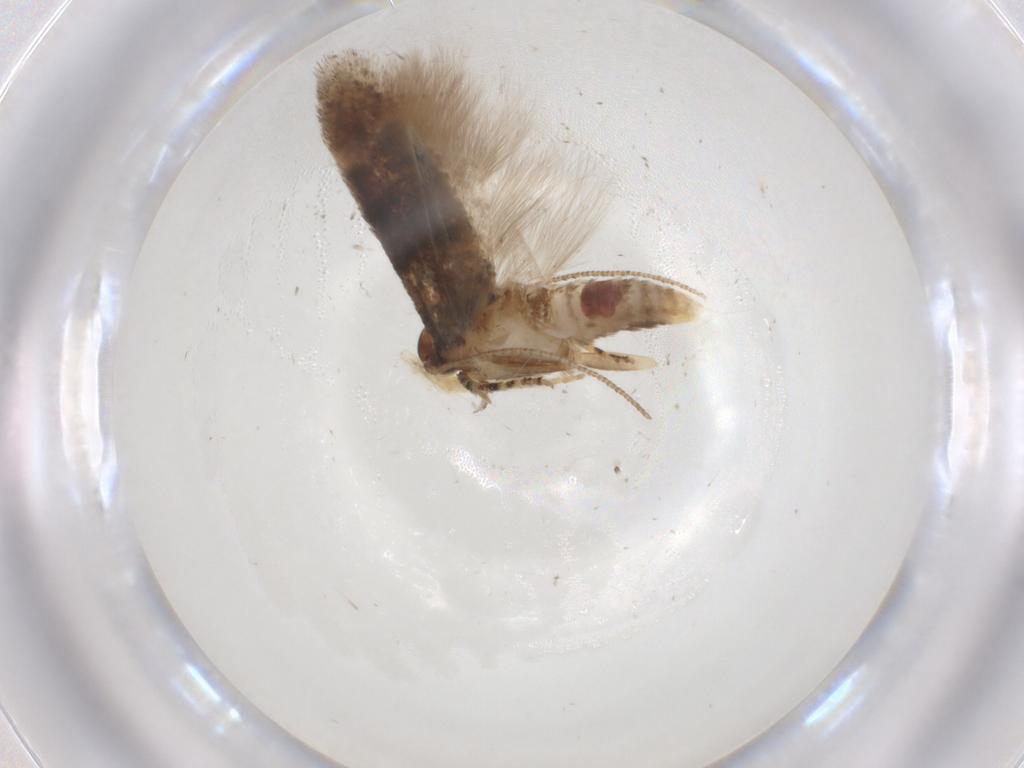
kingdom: Animalia
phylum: Arthropoda
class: Insecta
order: Lepidoptera
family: Gelechiidae
